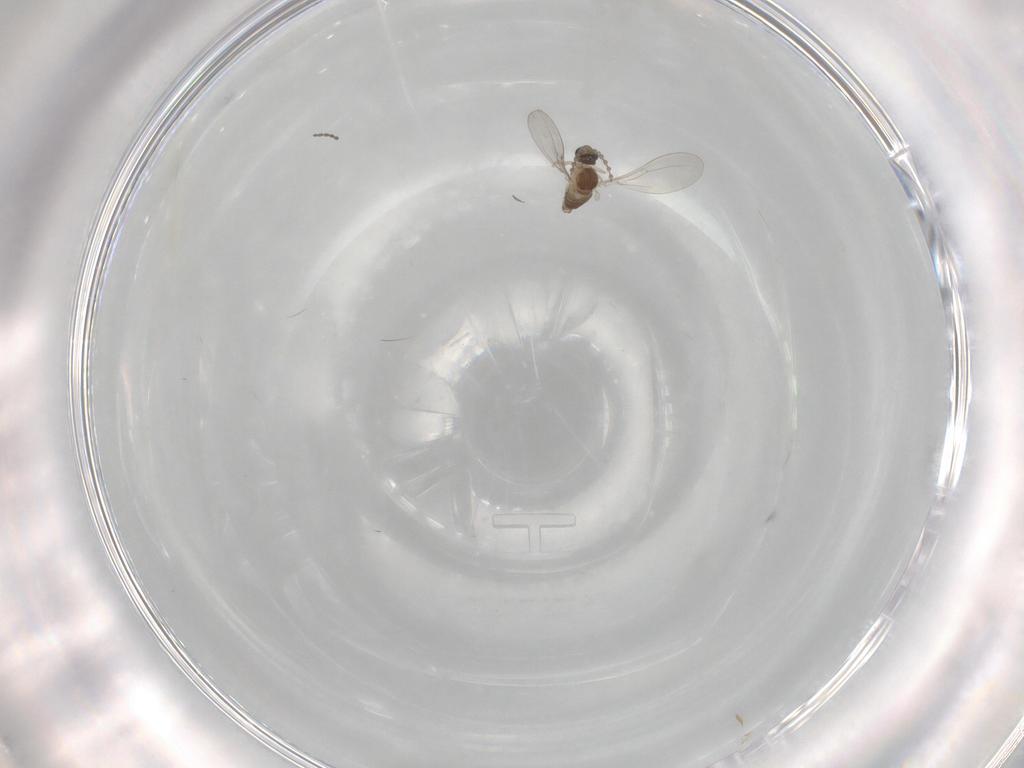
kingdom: Animalia
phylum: Arthropoda
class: Insecta
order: Diptera
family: Cecidomyiidae
